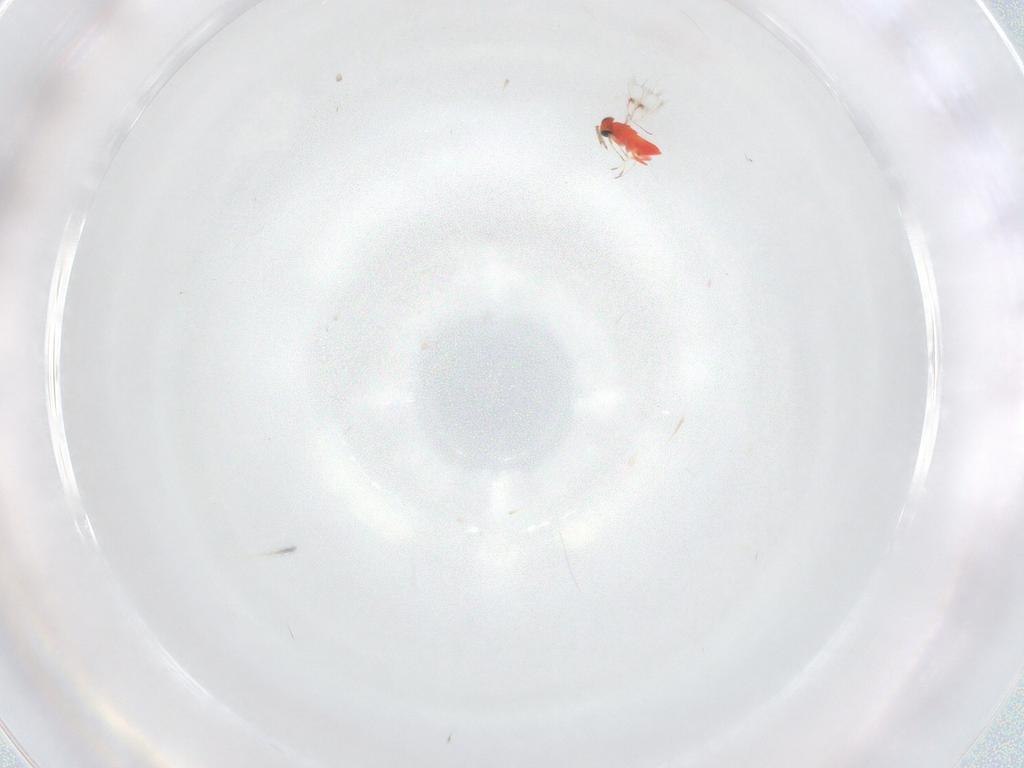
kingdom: Animalia
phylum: Arthropoda
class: Insecta
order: Hymenoptera
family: Trichogrammatidae
